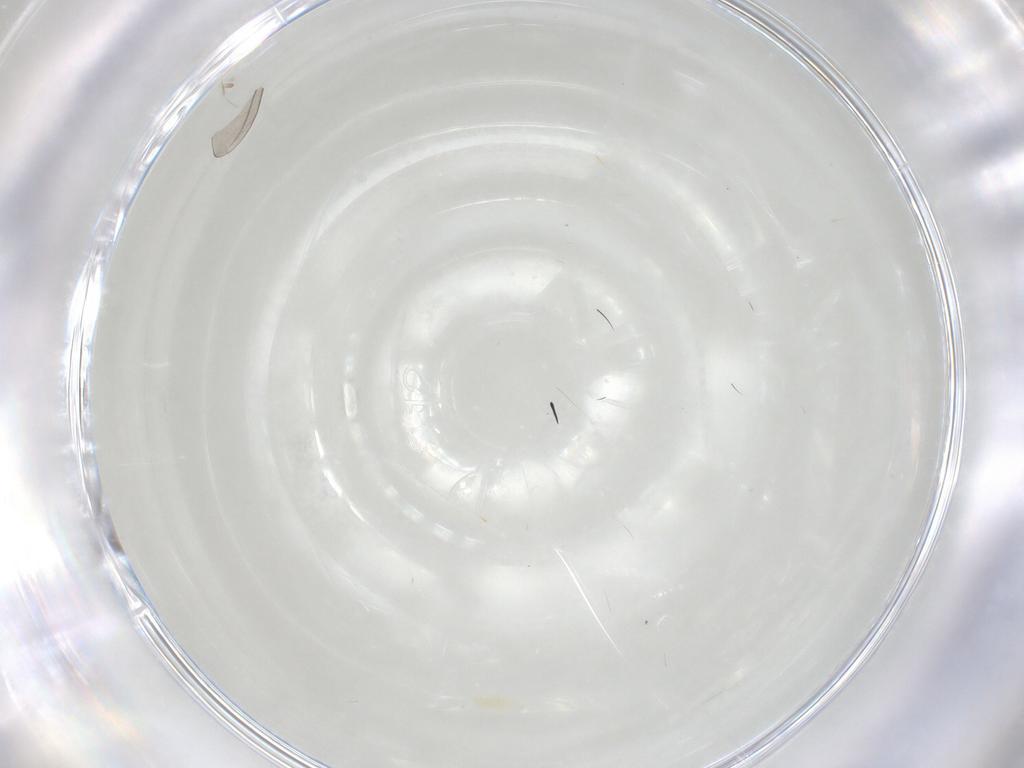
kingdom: Animalia
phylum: Arthropoda
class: Arachnida
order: Trombidiformes
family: Eupodidae
